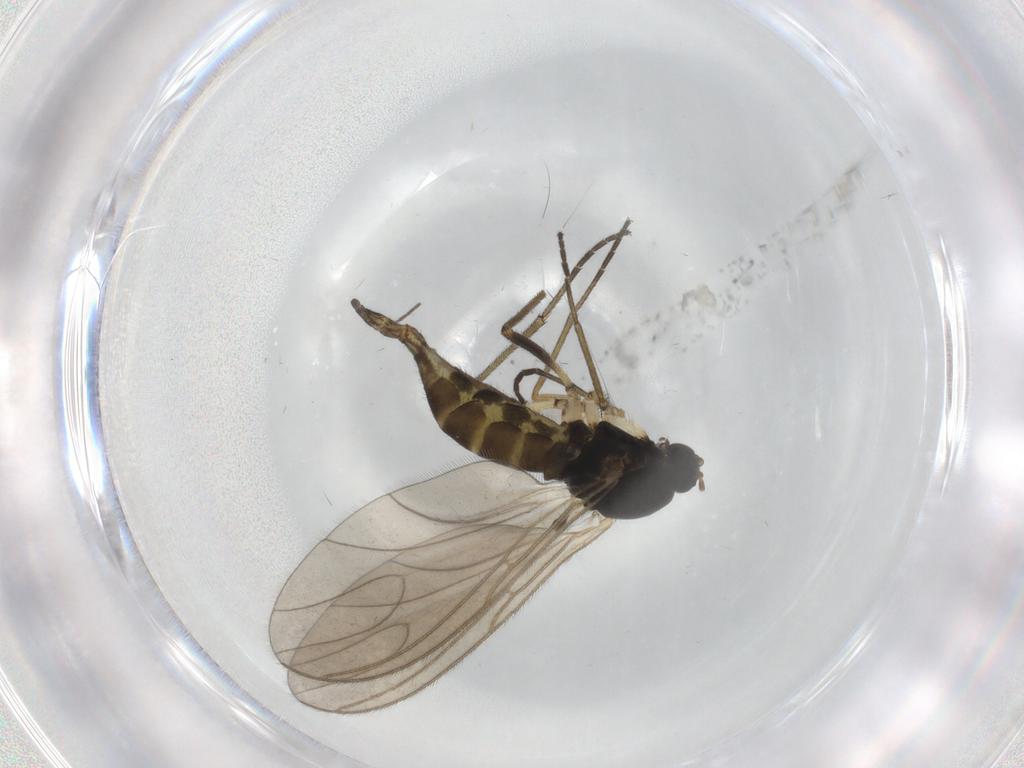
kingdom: Animalia
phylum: Arthropoda
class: Insecta
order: Diptera
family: Sciaridae
